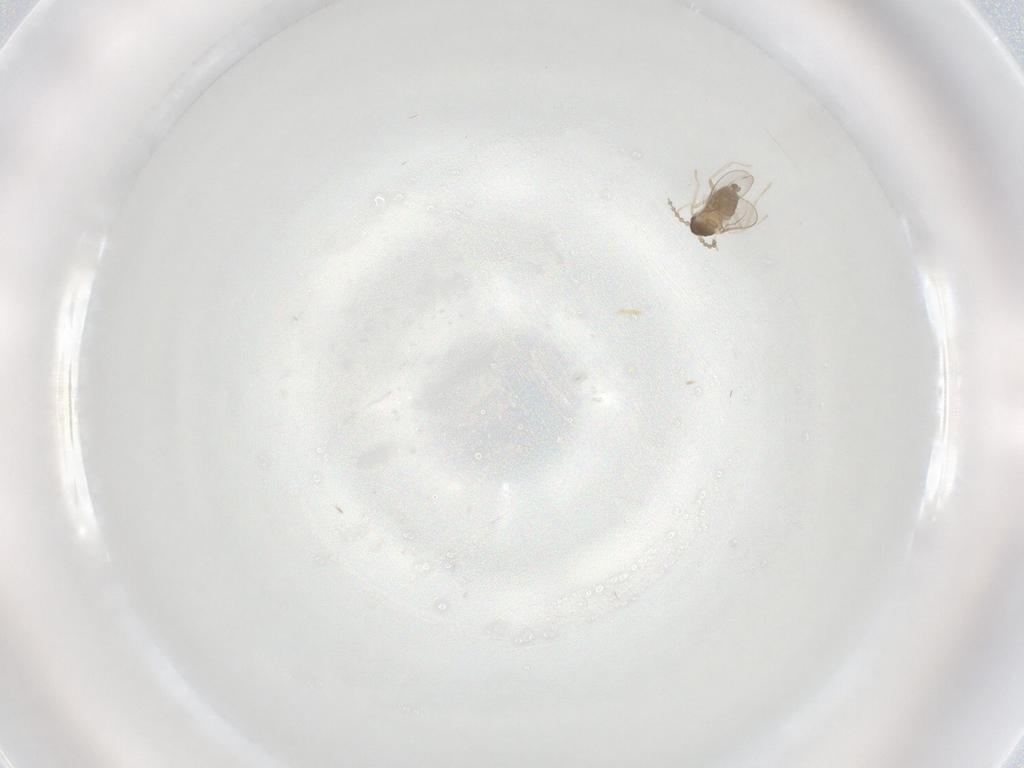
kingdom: Animalia
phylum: Arthropoda
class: Insecta
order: Diptera
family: Cecidomyiidae
